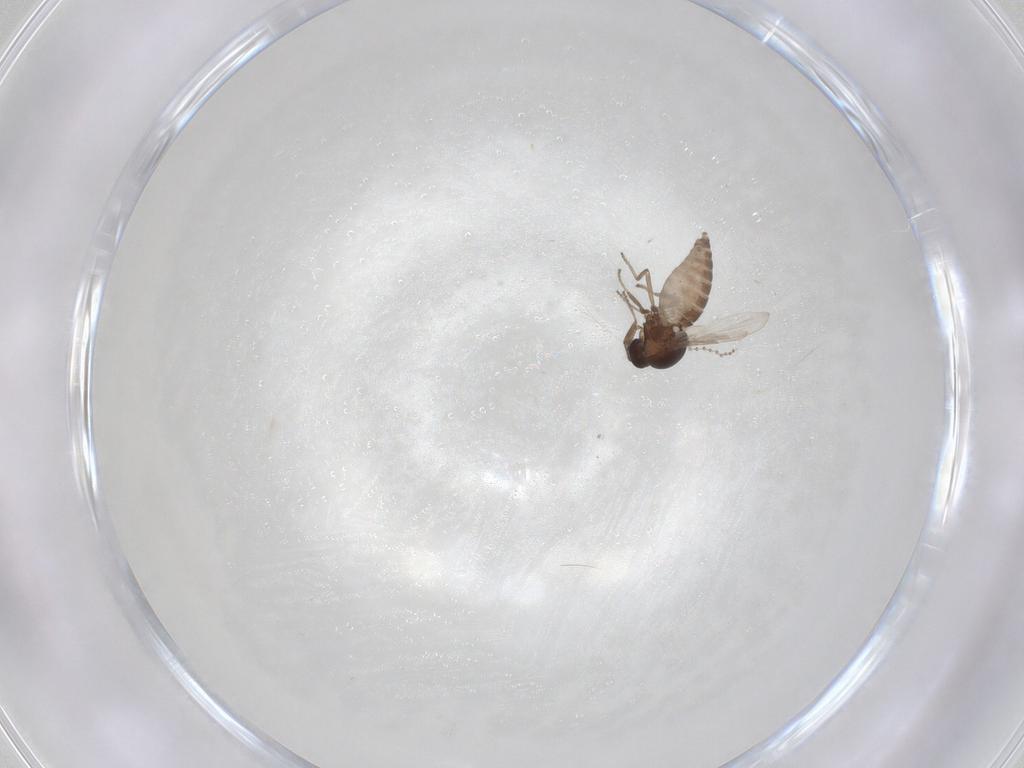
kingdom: Animalia
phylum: Arthropoda
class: Insecta
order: Diptera
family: Ceratopogonidae
